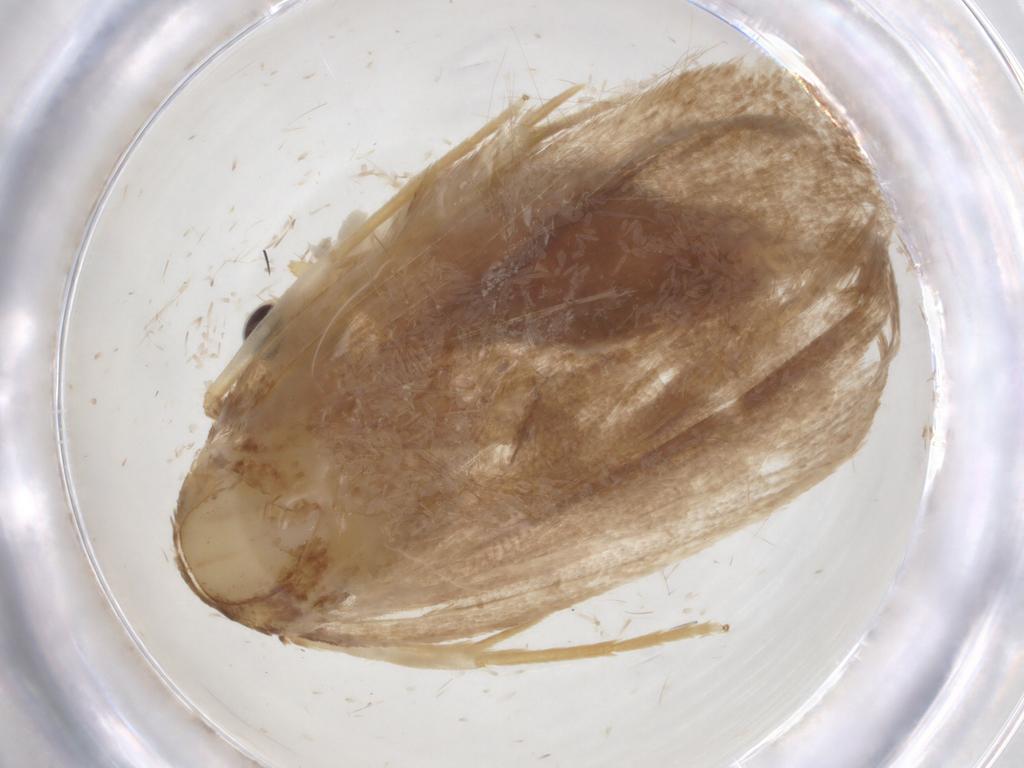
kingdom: Animalia
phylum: Arthropoda
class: Insecta
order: Lepidoptera
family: Lecithoceridae
